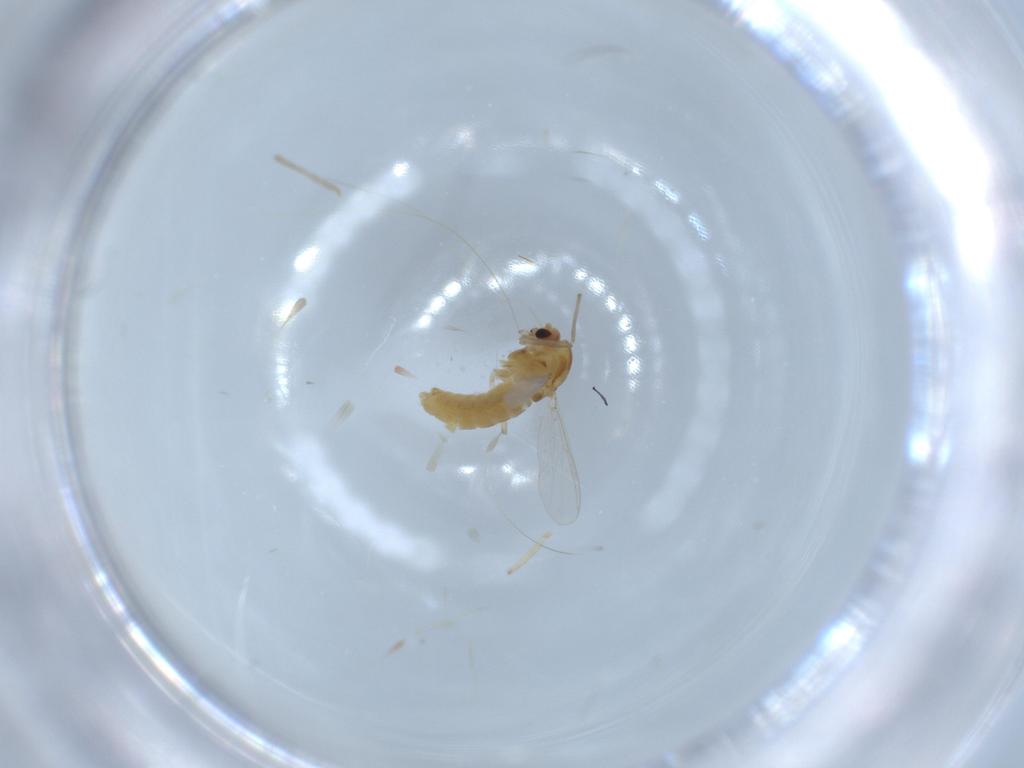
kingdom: Animalia
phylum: Arthropoda
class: Insecta
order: Diptera
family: Chironomidae
